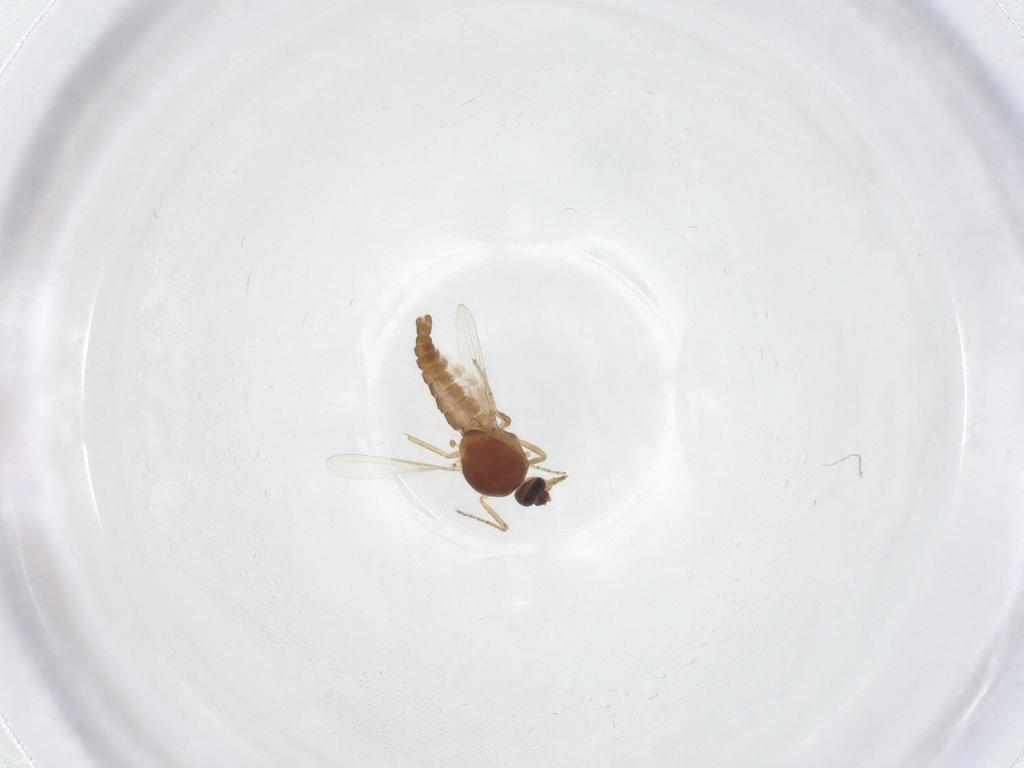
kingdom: Animalia
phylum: Arthropoda
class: Insecta
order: Diptera
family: Ceratopogonidae
